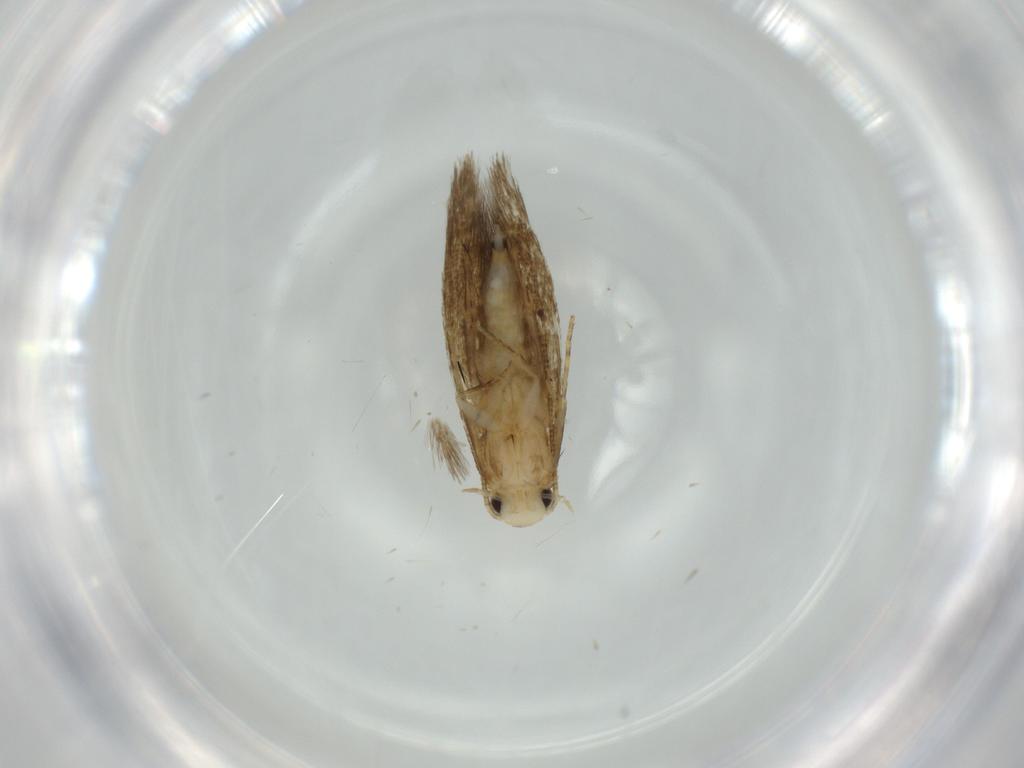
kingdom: Animalia
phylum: Arthropoda
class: Insecta
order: Lepidoptera
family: Tineidae
